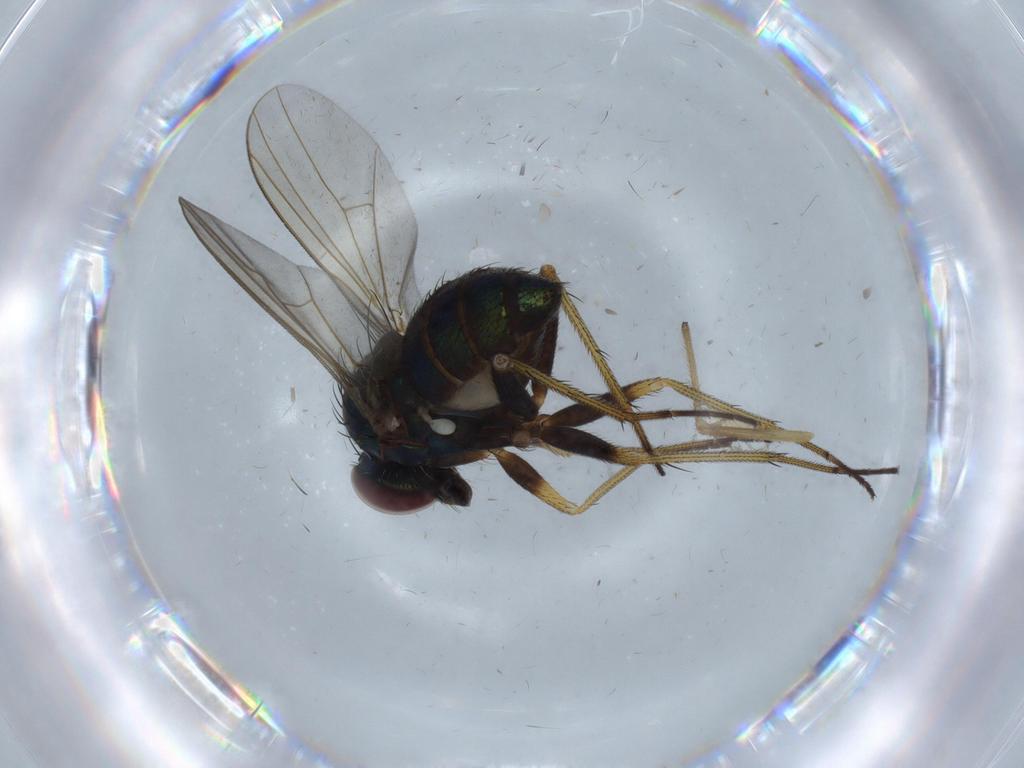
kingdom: Animalia
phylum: Arthropoda
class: Insecta
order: Diptera
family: Dolichopodidae
